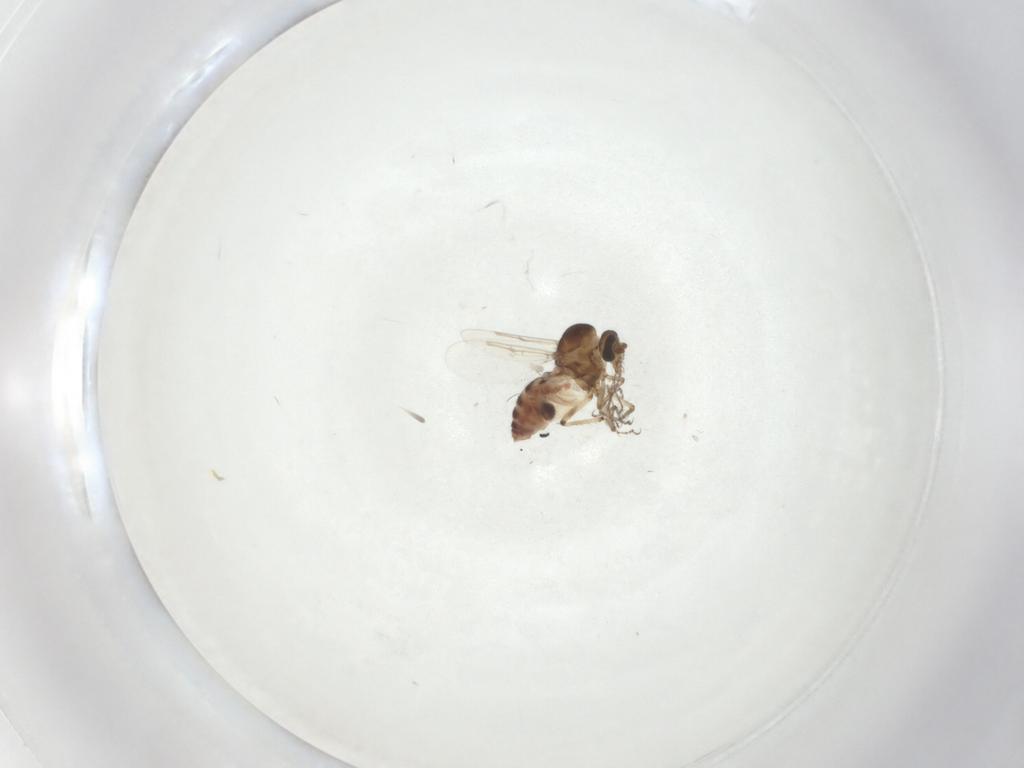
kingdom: Animalia
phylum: Arthropoda
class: Insecta
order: Diptera
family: Ceratopogonidae
